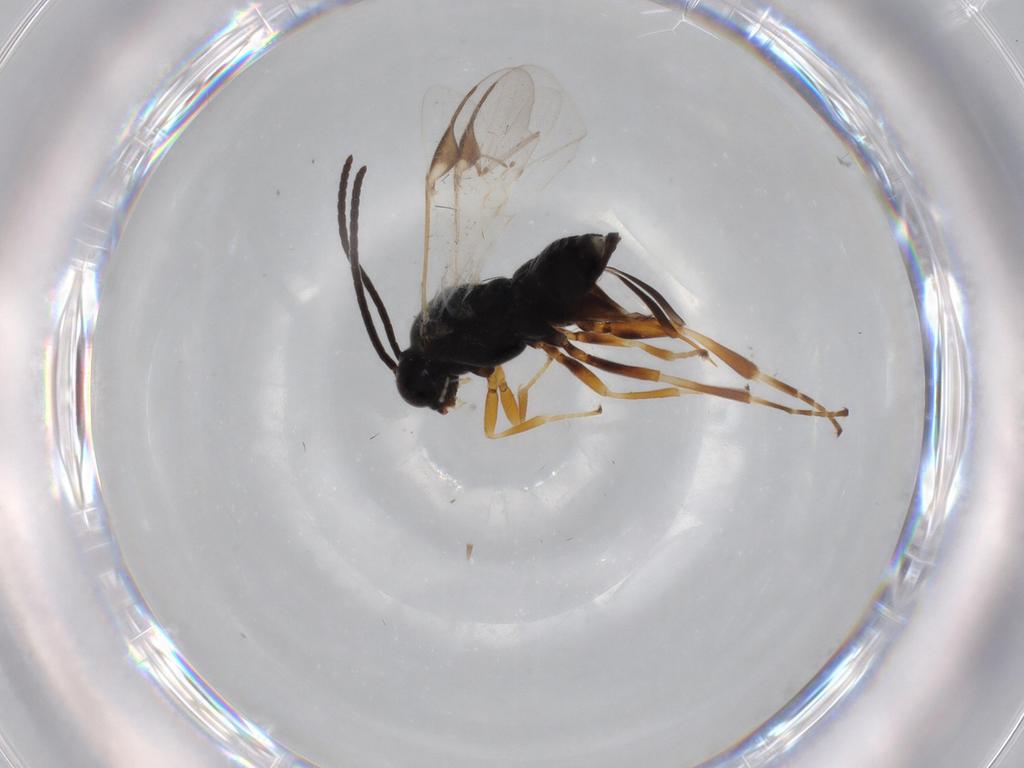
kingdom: Animalia
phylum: Arthropoda
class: Insecta
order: Hymenoptera
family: Braconidae
